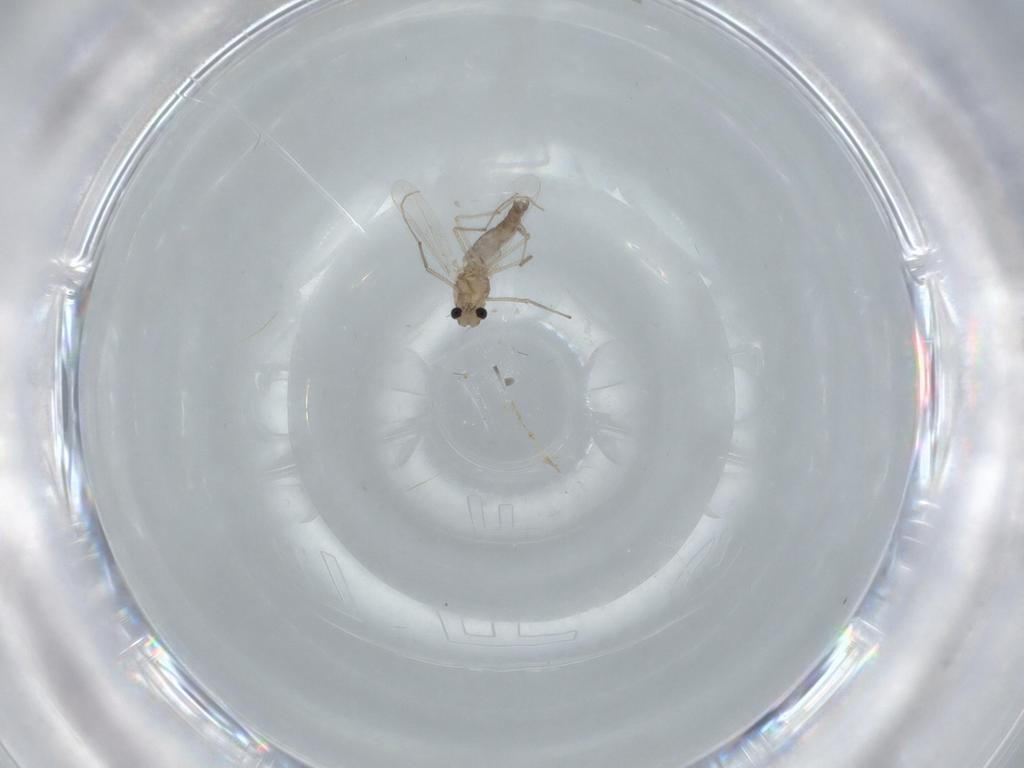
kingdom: Animalia
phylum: Arthropoda
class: Insecta
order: Diptera
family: Chironomidae
